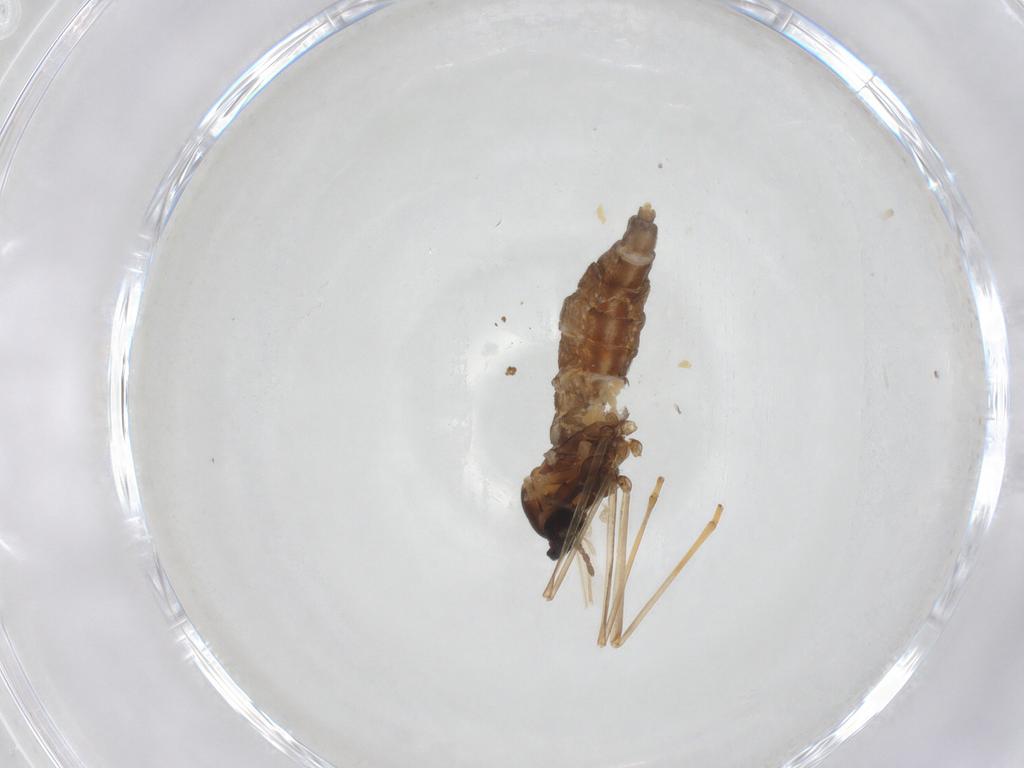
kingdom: Animalia
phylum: Arthropoda
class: Insecta
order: Diptera
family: Cecidomyiidae
